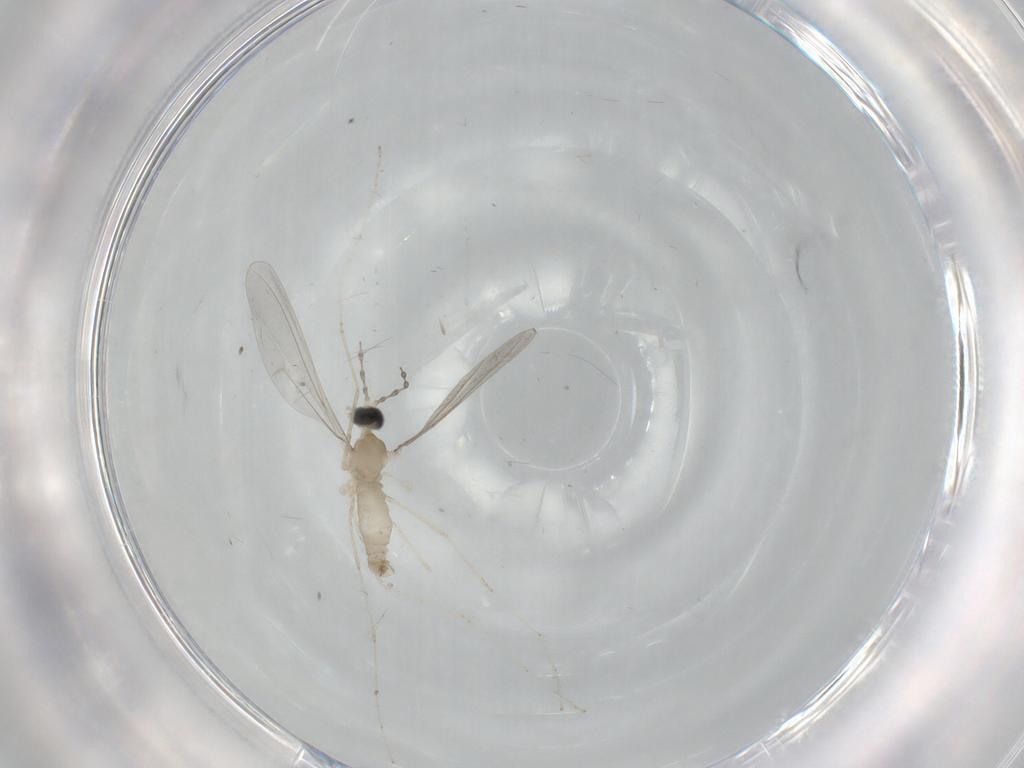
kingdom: Animalia
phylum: Arthropoda
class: Insecta
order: Diptera
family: Cecidomyiidae
